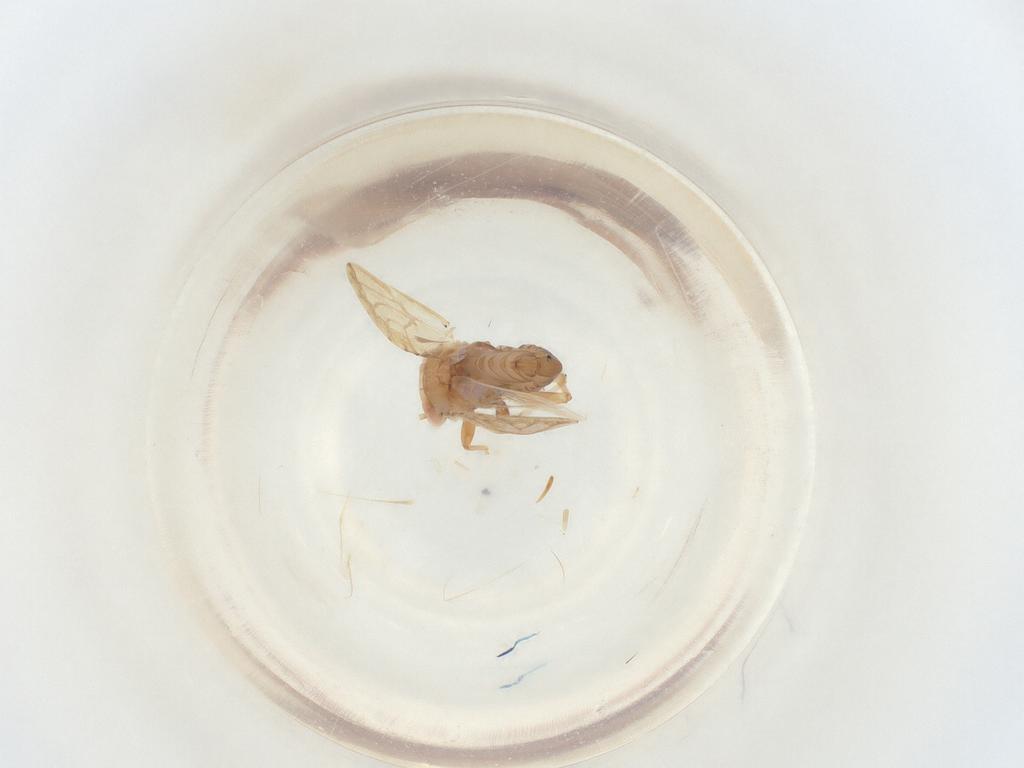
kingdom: Animalia
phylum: Arthropoda
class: Insecta
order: Hemiptera
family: Psyllidae
